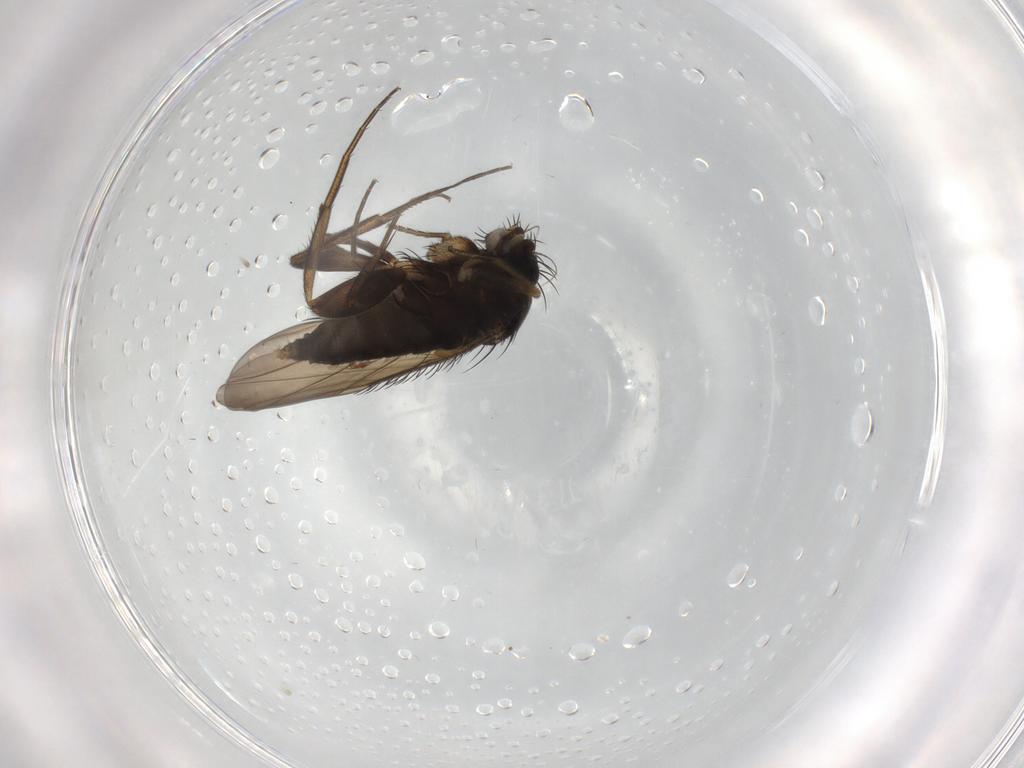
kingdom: Animalia
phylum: Arthropoda
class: Insecta
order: Diptera
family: Phoridae
